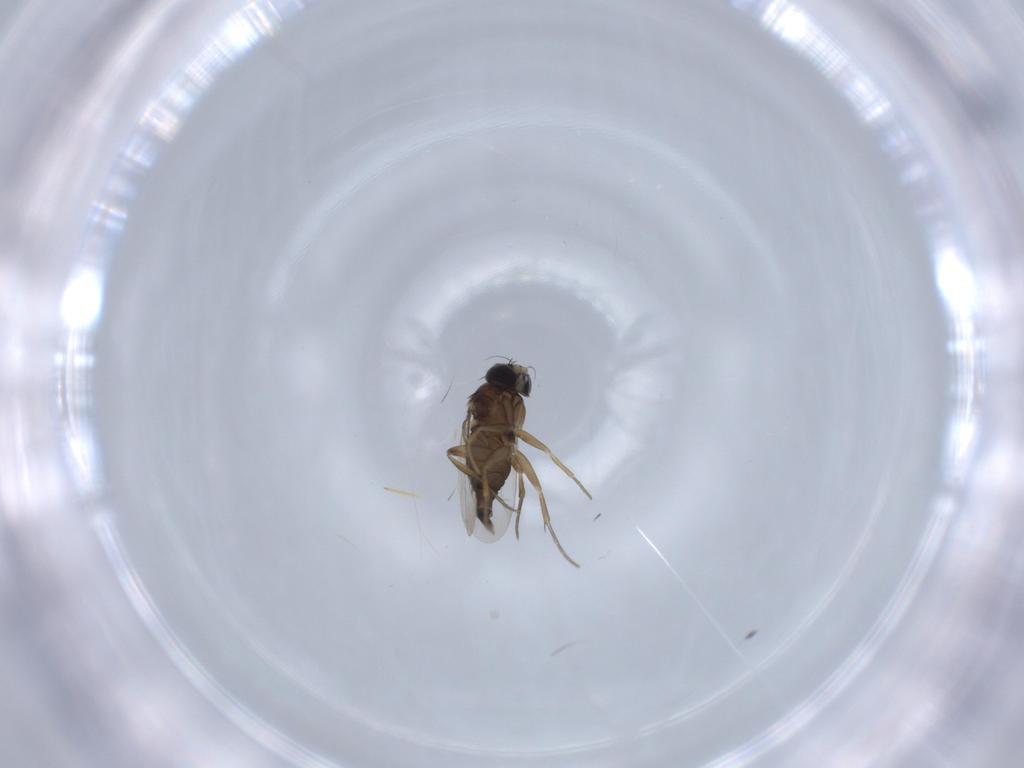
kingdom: Animalia
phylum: Arthropoda
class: Insecta
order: Diptera
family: Phoridae
